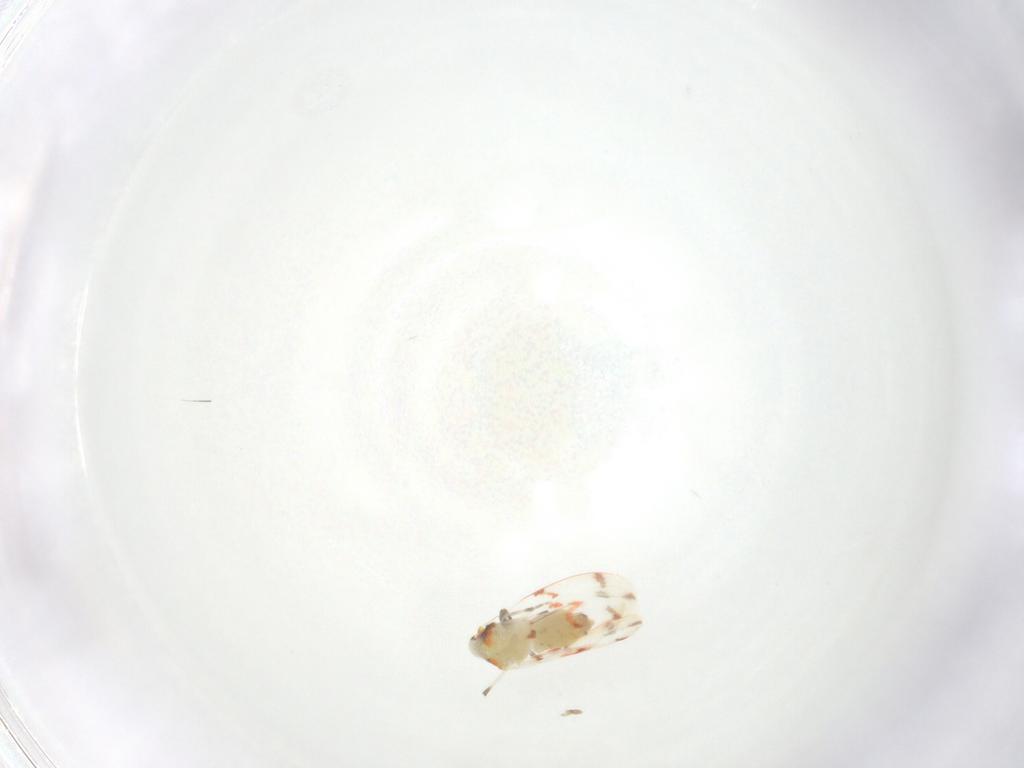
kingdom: Animalia
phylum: Arthropoda
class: Insecta
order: Hemiptera
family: Aleyrodidae
